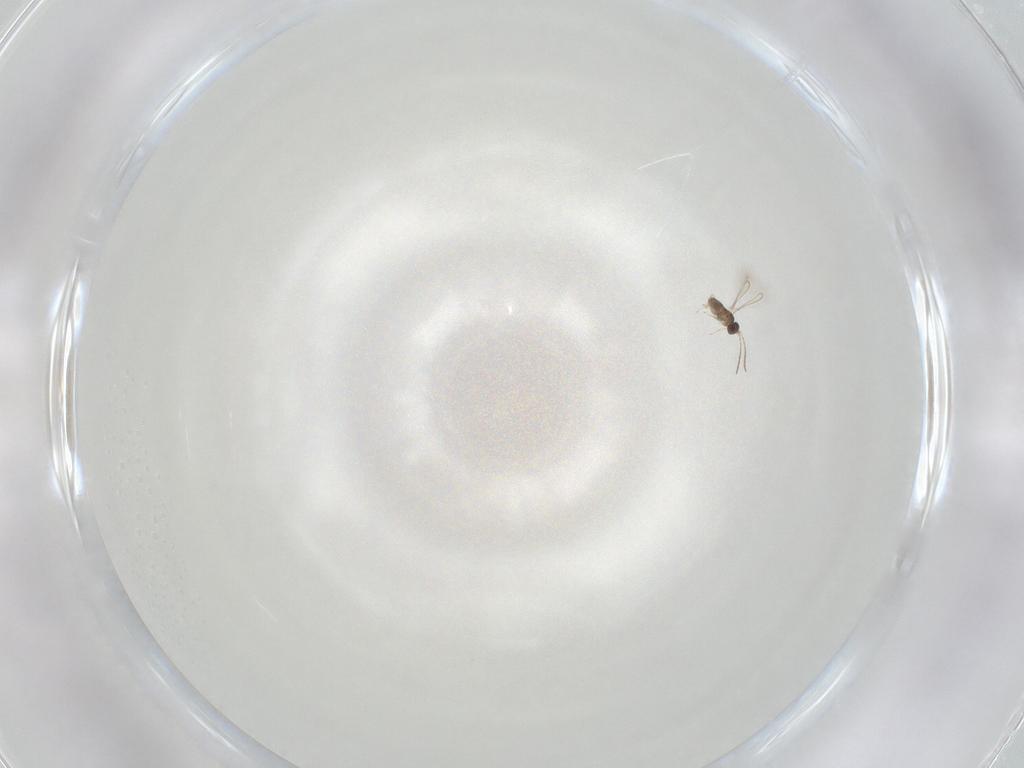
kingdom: Animalia
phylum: Arthropoda
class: Insecta
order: Hymenoptera
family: Mymaridae
